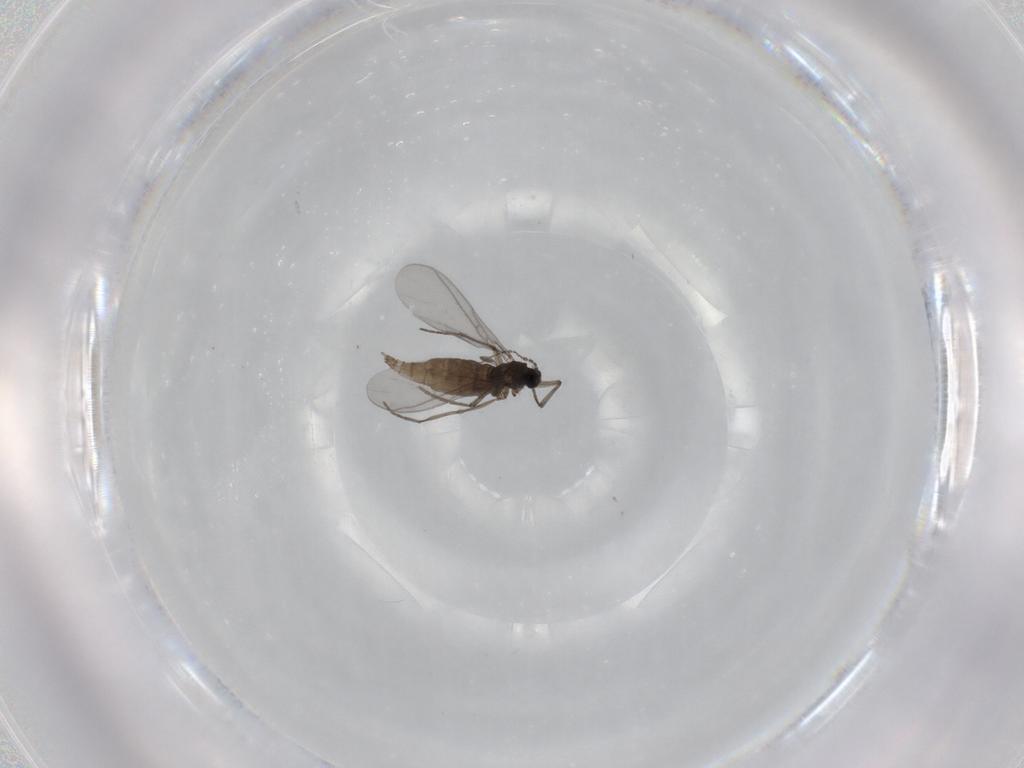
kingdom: Animalia
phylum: Arthropoda
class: Insecta
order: Diptera
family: Sciaridae
